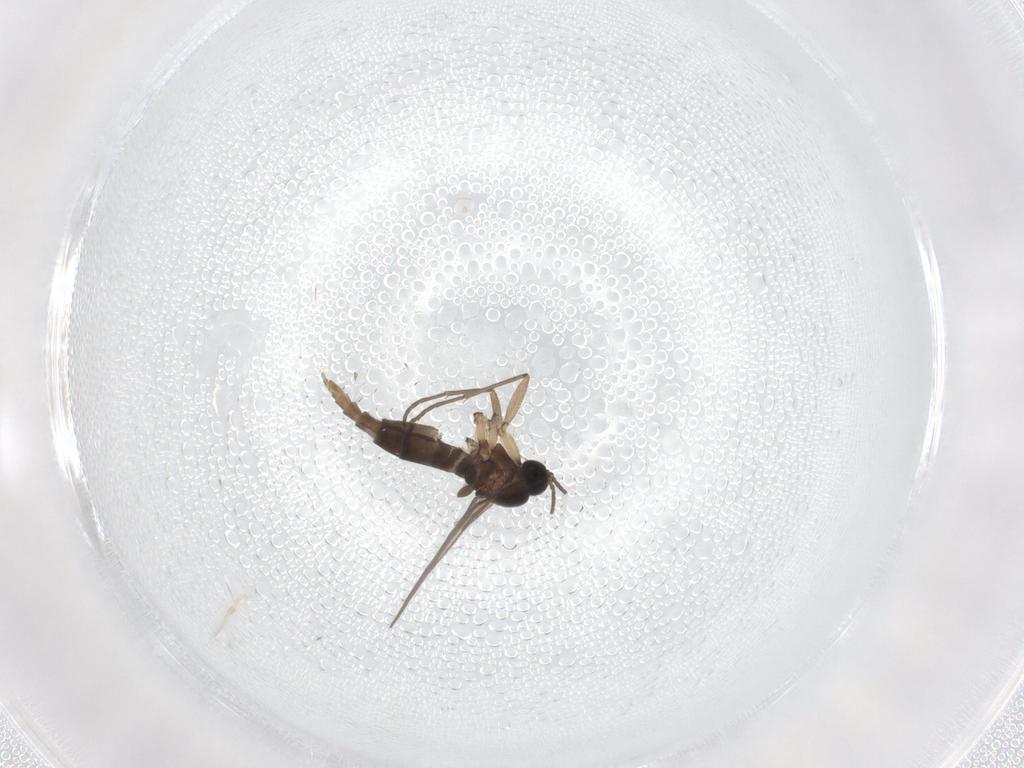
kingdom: Animalia
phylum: Arthropoda
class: Insecta
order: Diptera
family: Sciaridae
